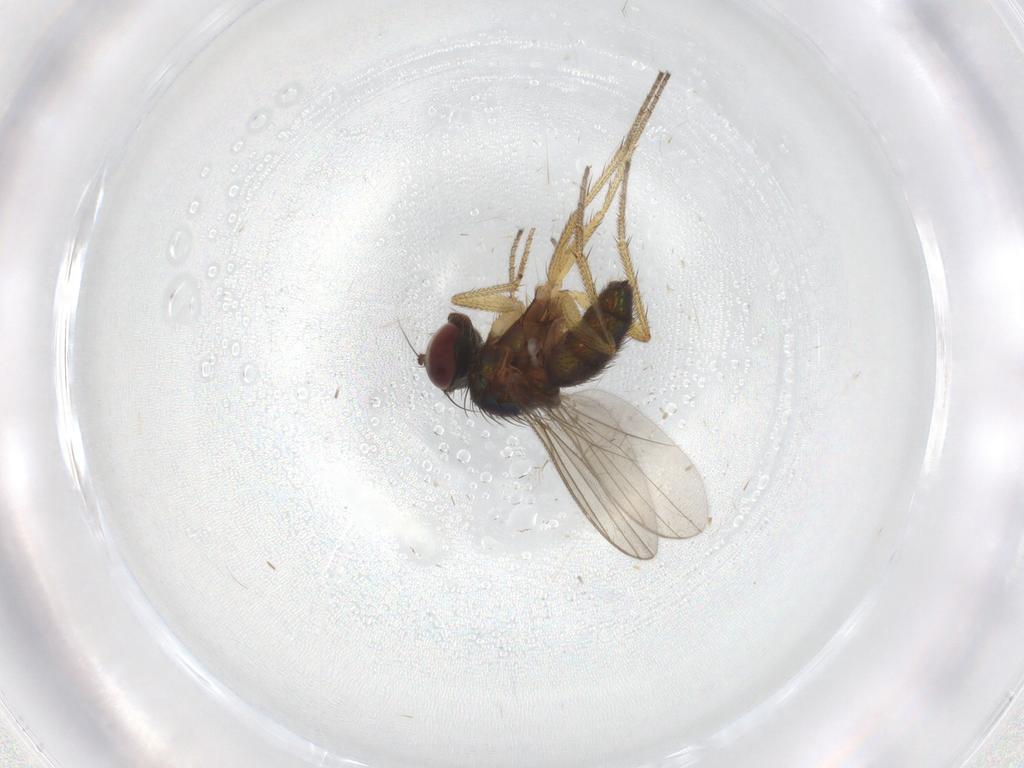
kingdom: Animalia
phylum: Arthropoda
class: Insecta
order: Diptera
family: Chironomidae
